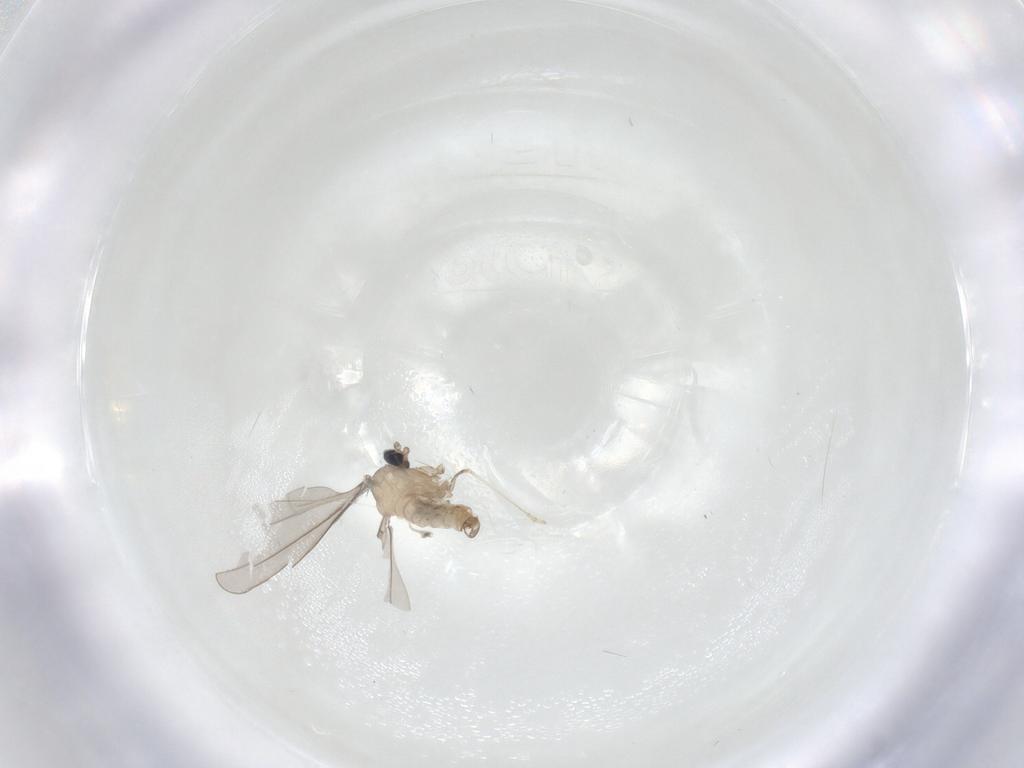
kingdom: Animalia
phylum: Arthropoda
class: Insecta
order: Diptera
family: Cecidomyiidae
